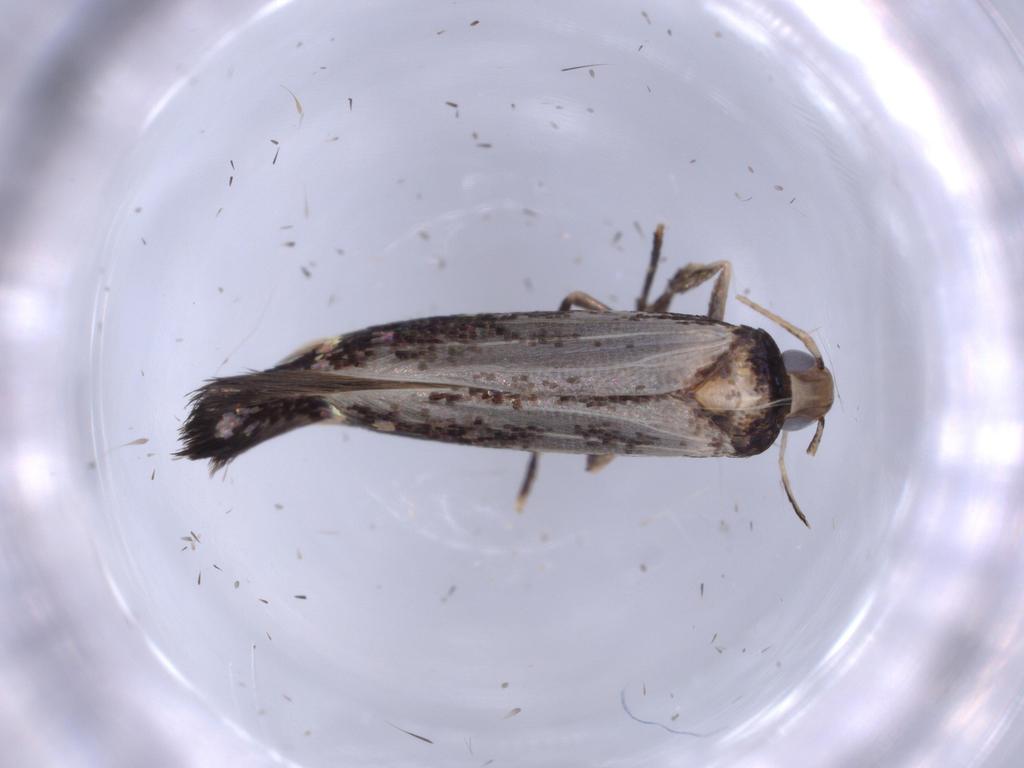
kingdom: Animalia
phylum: Arthropoda
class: Insecta
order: Lepidoptera
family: Cosmopterigidae
